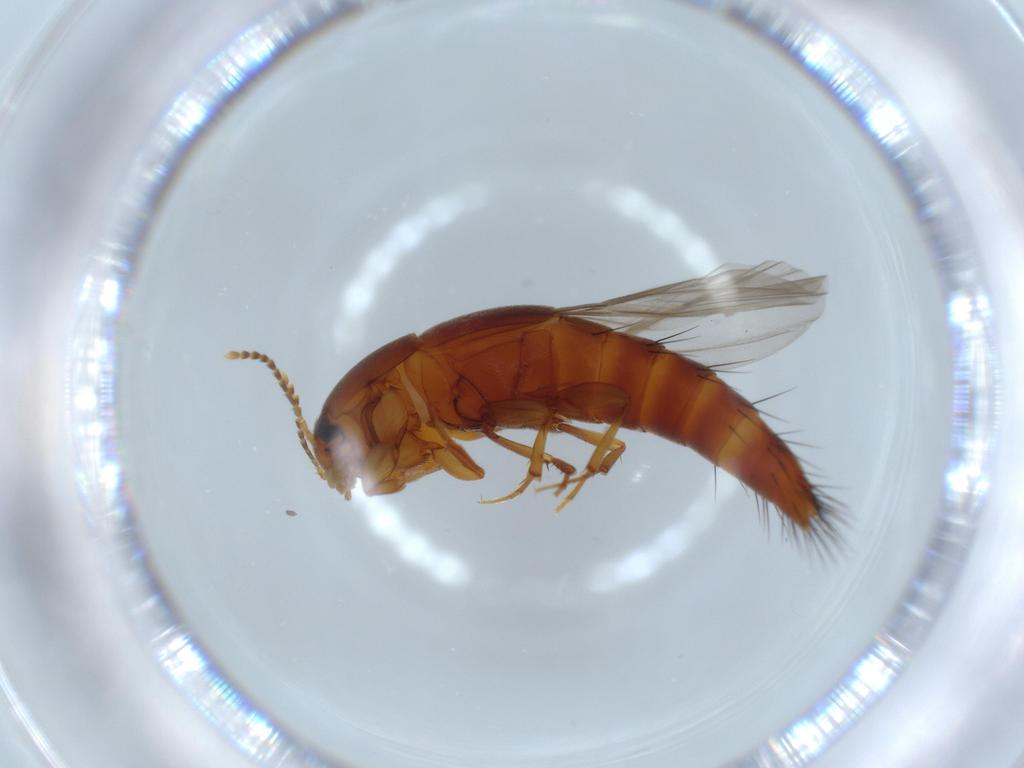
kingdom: Animalia
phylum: Arthropoda
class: Insecta
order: Coleoptera
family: Staphylinidae
